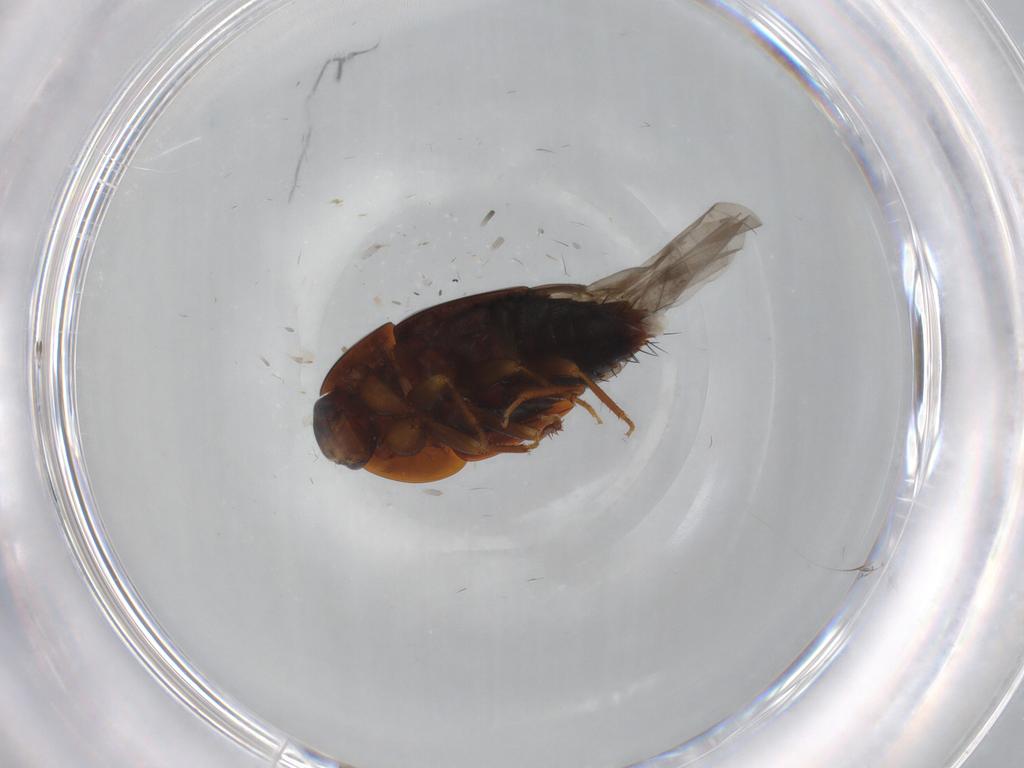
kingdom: Animalia
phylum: Arthropoda
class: Insecta
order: Coleoptera
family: Staphylinidae
